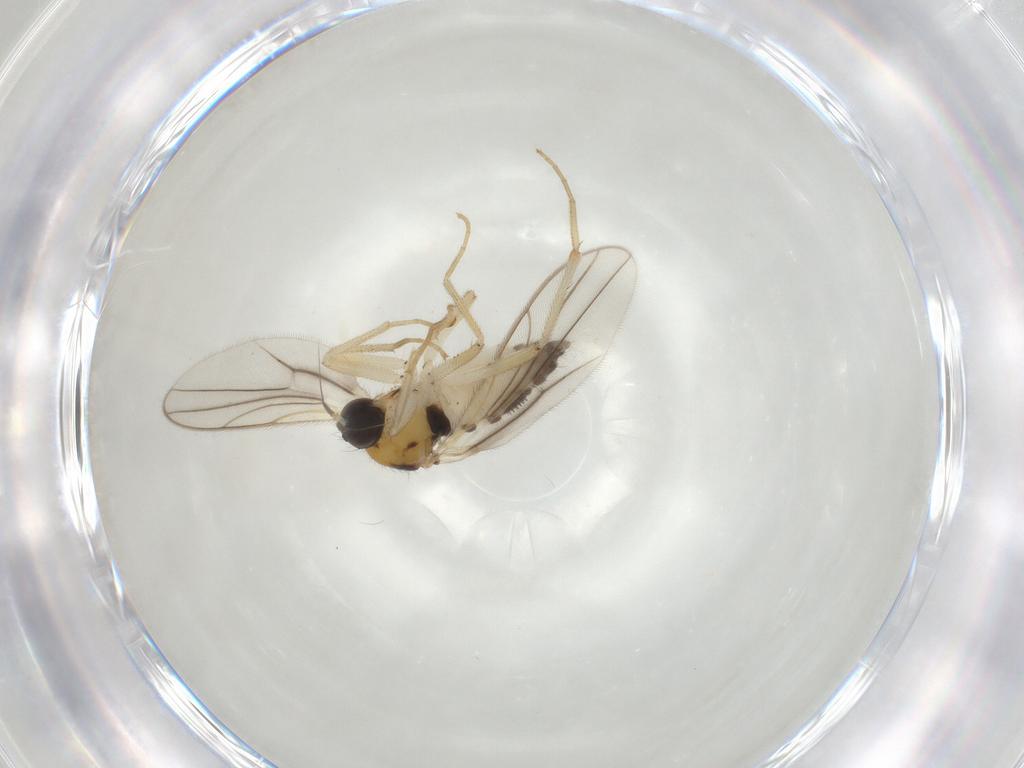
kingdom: Animalia
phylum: Arthropoda
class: Insecta
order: Diptera
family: Hybotidae
